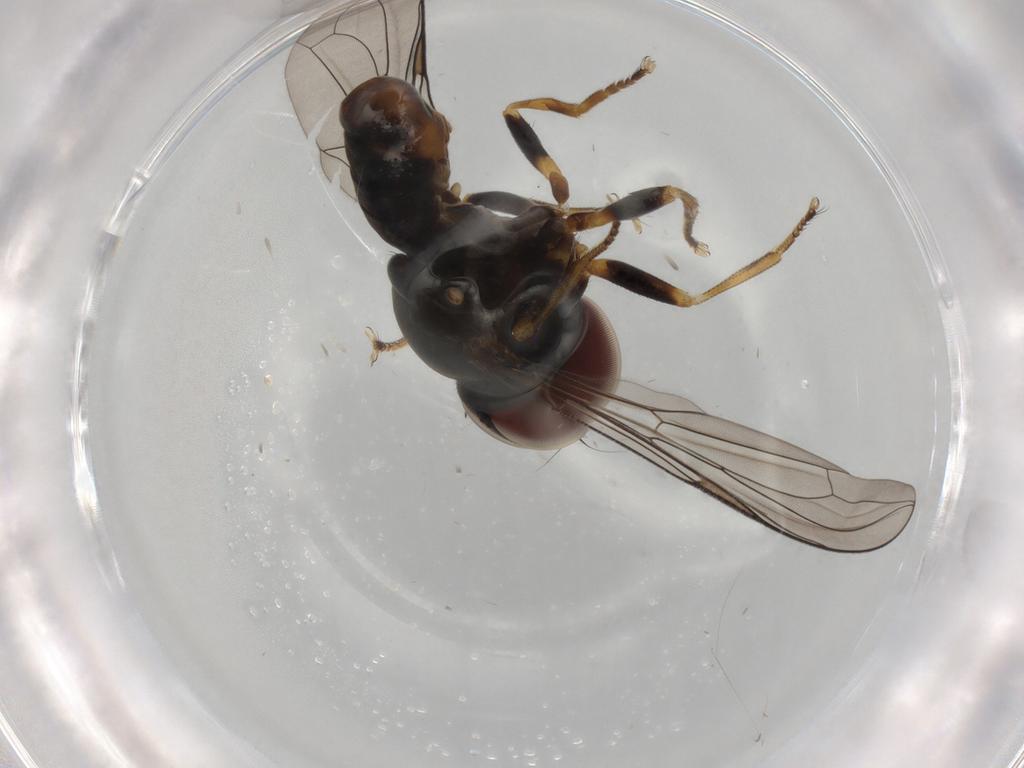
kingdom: Animalia
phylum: Arthropoda
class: Insecta
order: Diptera
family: Pipunculidae
